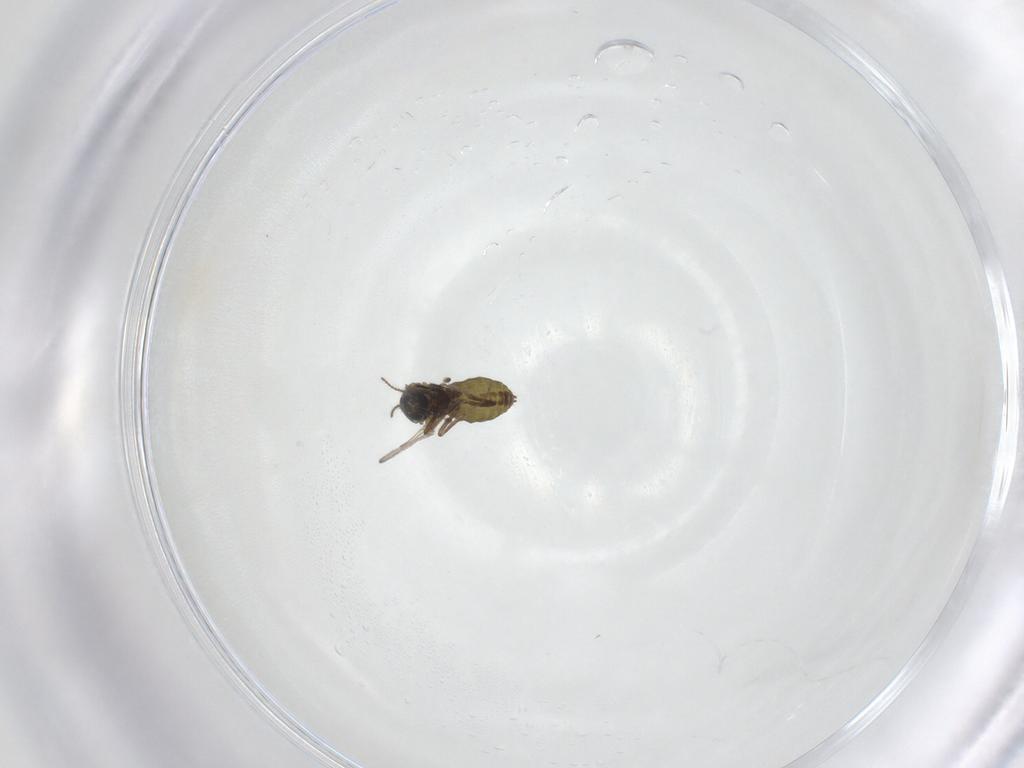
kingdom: Animalia
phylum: Arthropoda
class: Insecta
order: Diptera
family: Ceratopogonidae
